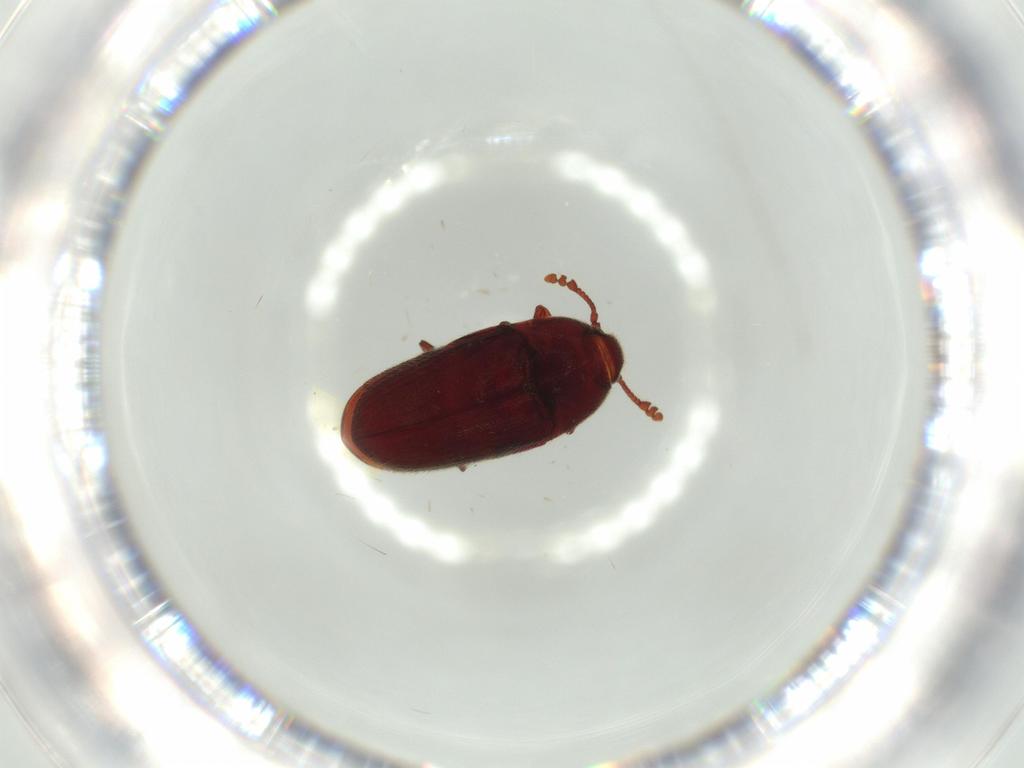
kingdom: Animalia
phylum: Arthropoda
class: Insecta
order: Coleoptera
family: Throscidae
